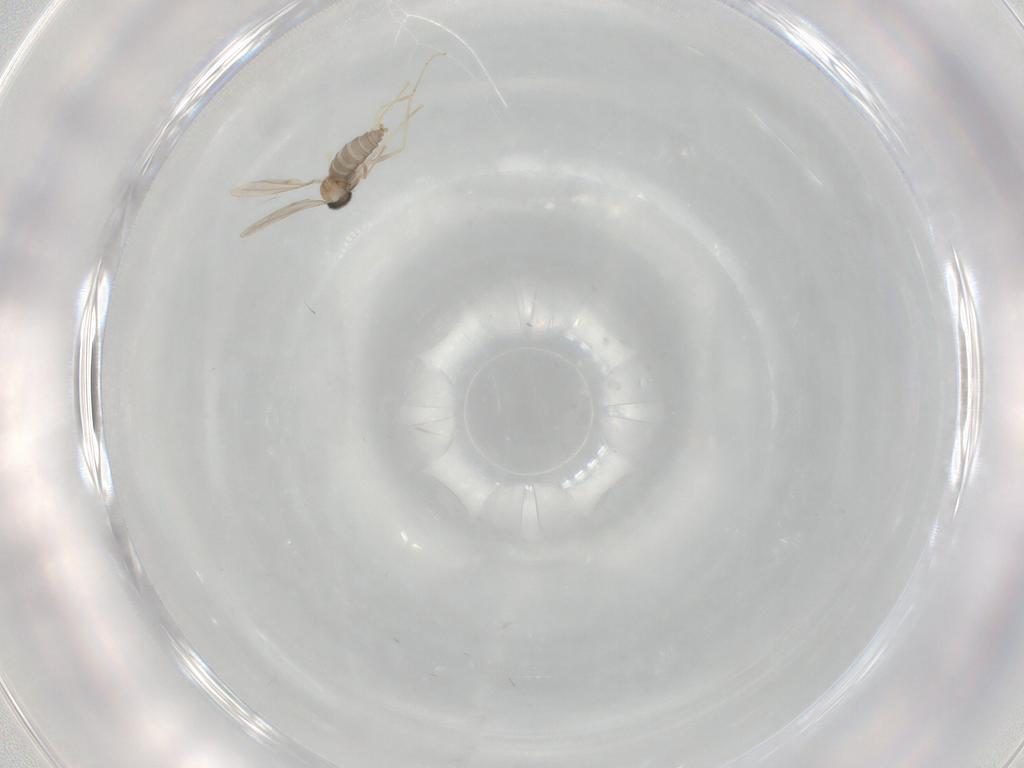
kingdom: Animalia
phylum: Arthropoda
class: Insecta
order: Diptera
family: Cecidomyiidae
